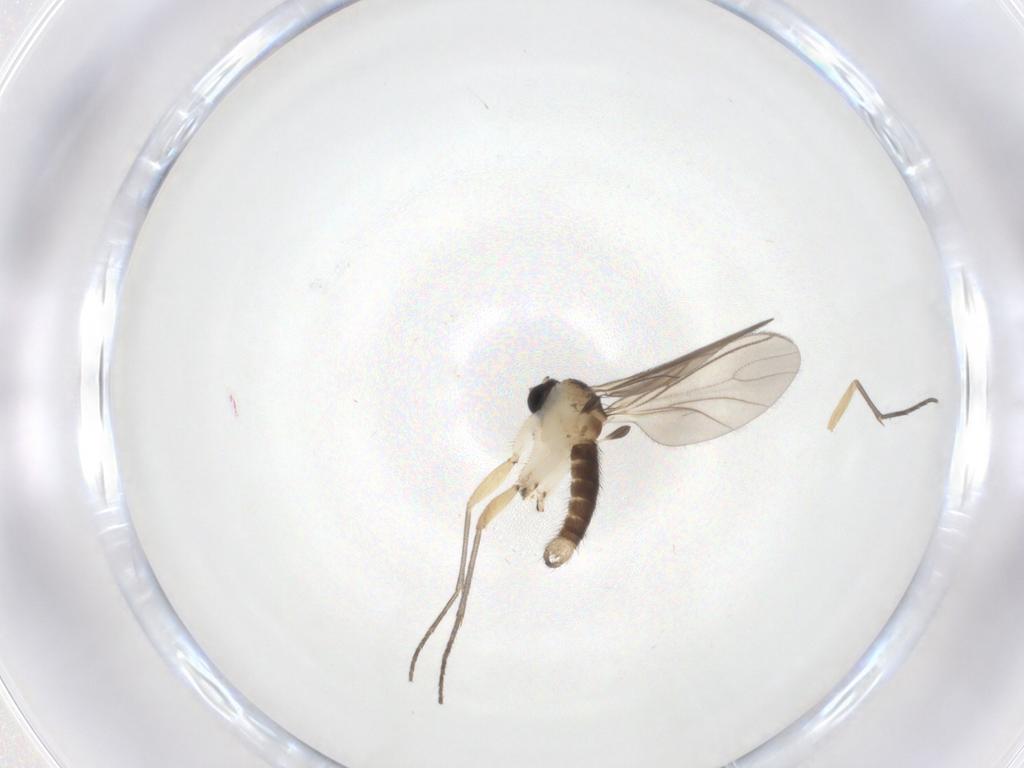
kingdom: Animalia
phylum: Arthropoda
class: Insecta
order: Diptera
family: Sciaridae
